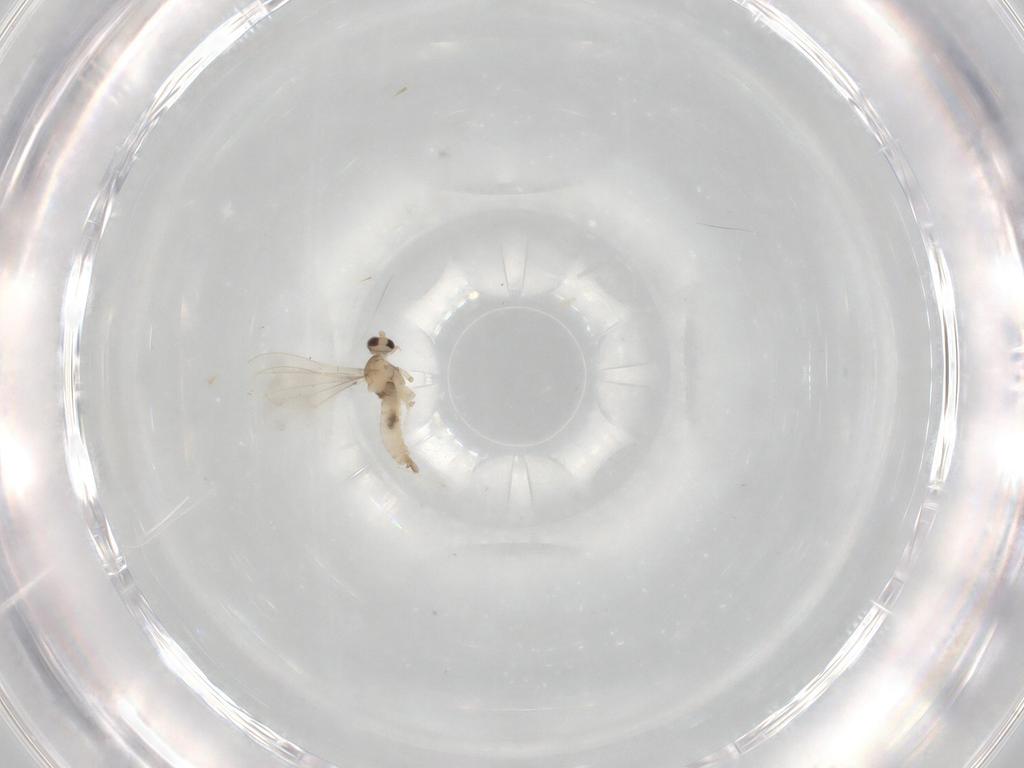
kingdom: Animalia
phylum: Arthropoda
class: Insecta
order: Diptera
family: Cecidomyiidae
